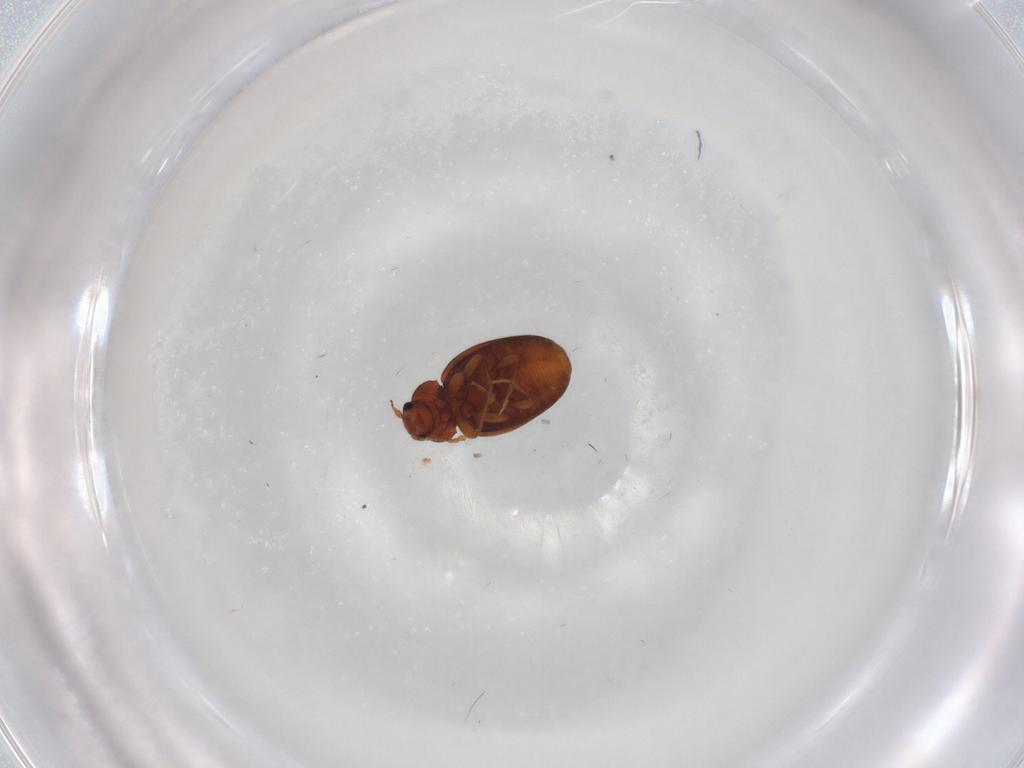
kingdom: Animalia
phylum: Arthropoda
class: Insecta
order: Coleoptera
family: Latridiidae
